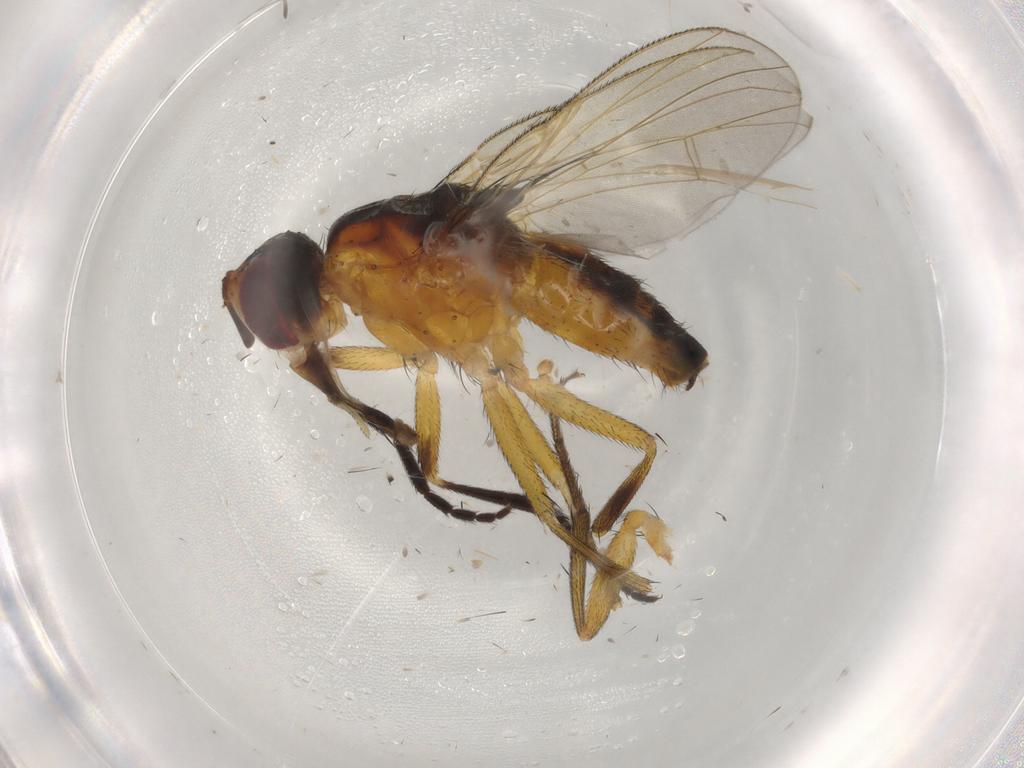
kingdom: Animalia
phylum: Arthropoda
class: Insecta
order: Diptera
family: Muscidae
